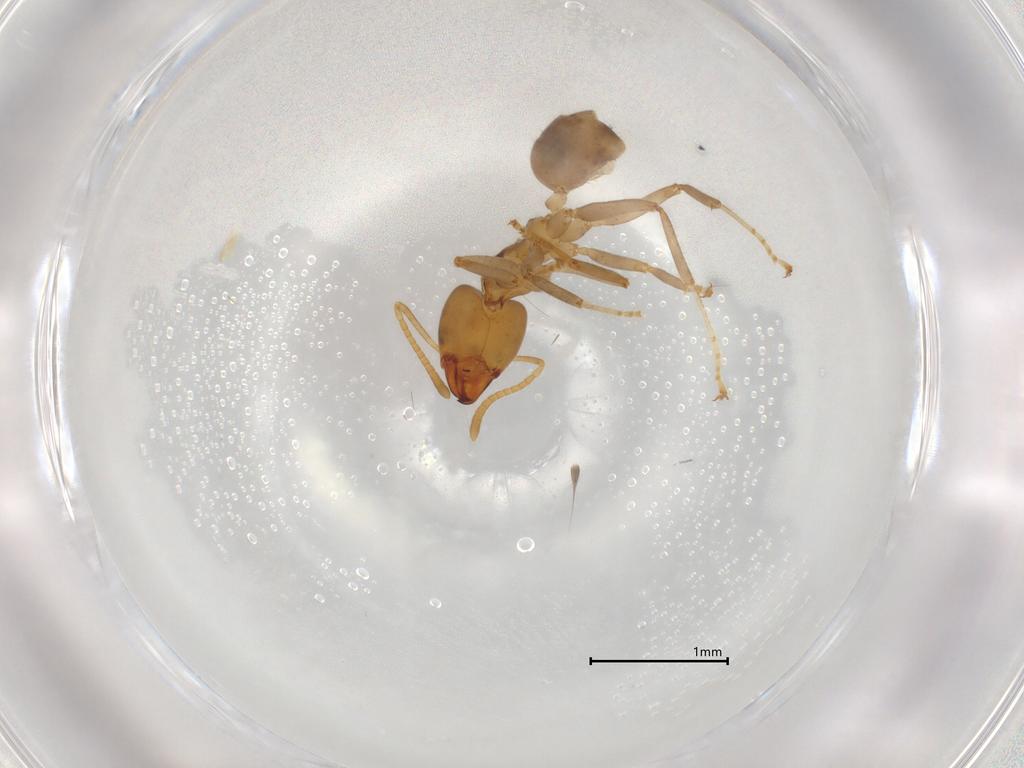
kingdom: Animalia
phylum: Arthropoda
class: Insecta
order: Hymenoptera
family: Formicidae
